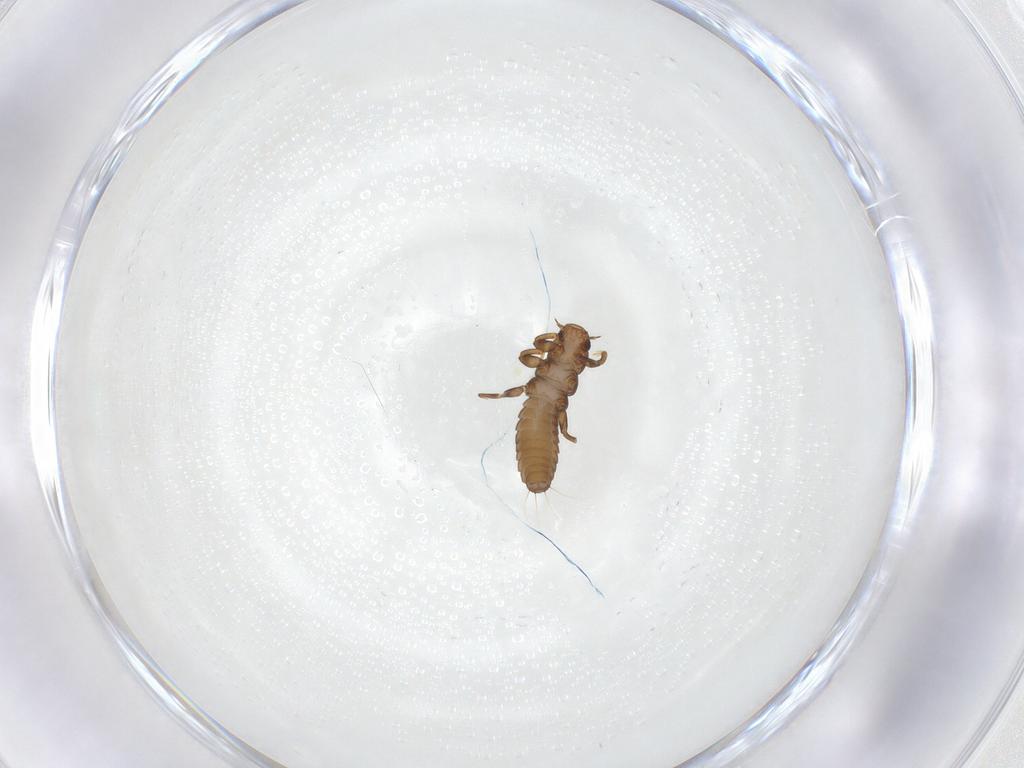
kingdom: Animalia
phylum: Arthropoda
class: Insecta
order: Coleoptera
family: Meloidae
